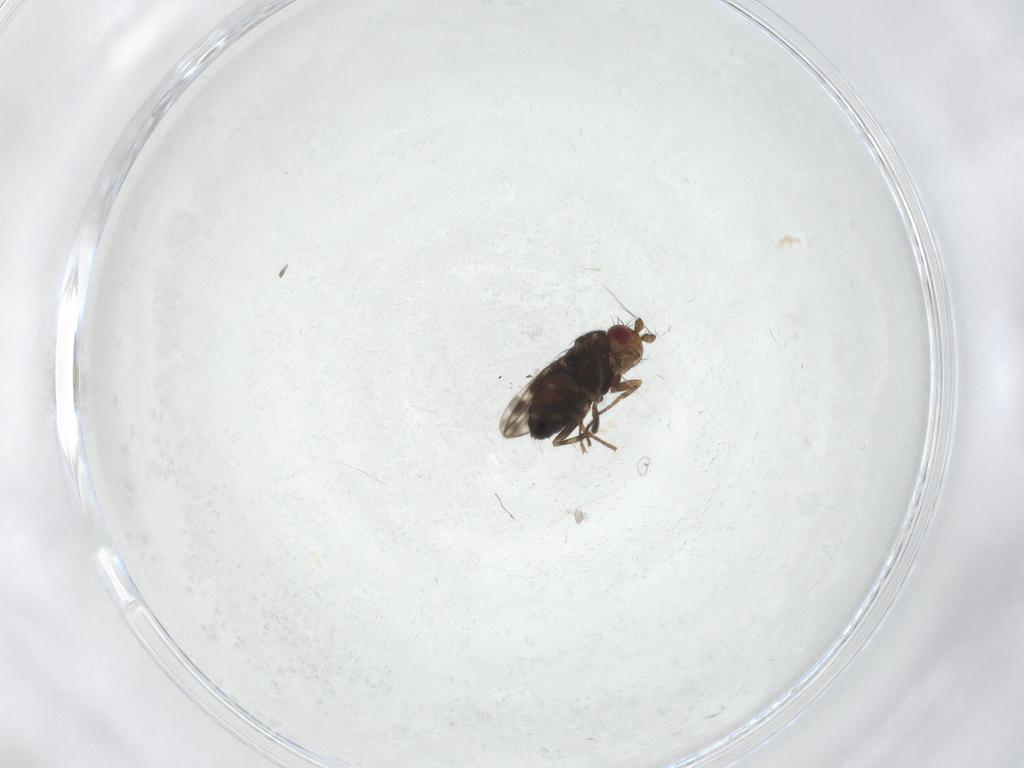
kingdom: Animalia
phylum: Arthropoda
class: Insecta
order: Diptera
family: Sphaeroceridae
